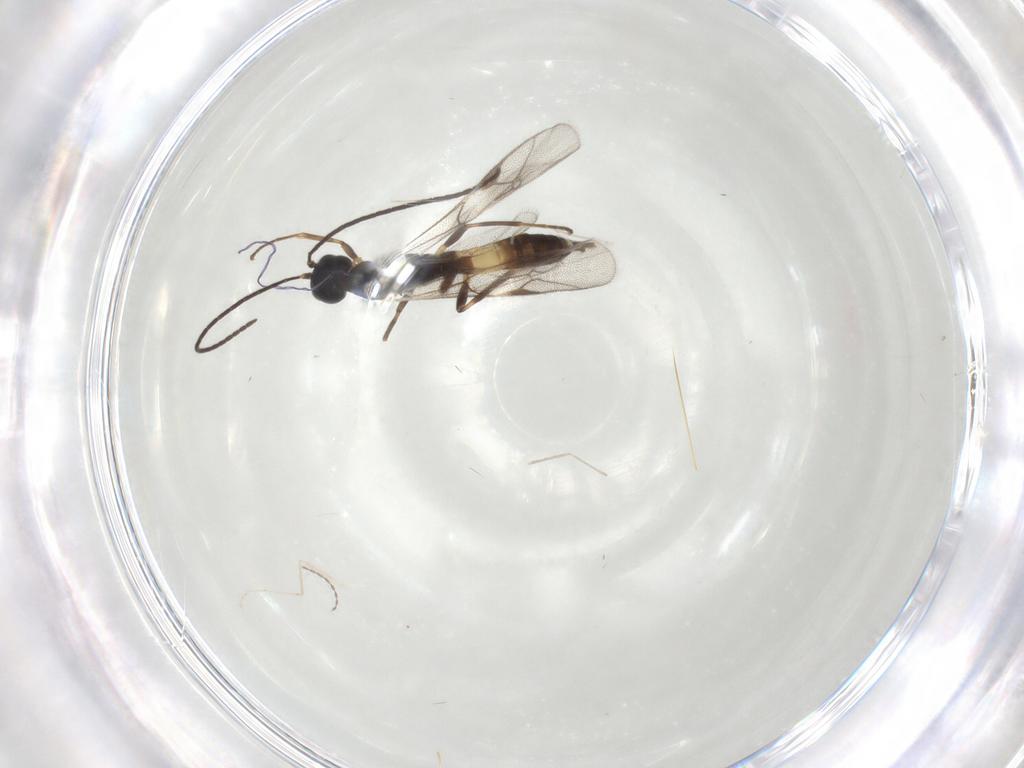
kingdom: Animalia
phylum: Arthropoda
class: Insecta
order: Hymenoptera
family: Ichneumonidae
